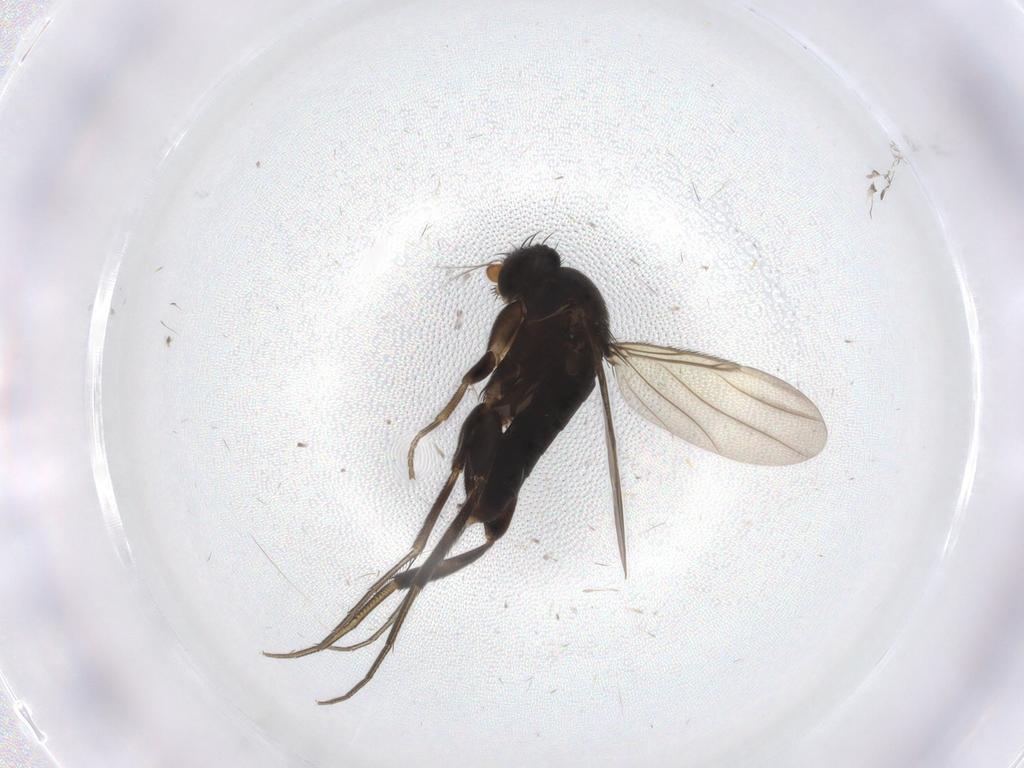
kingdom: Animalia
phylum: Arthropoda
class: Insecta
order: Diptera
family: Phoridae
